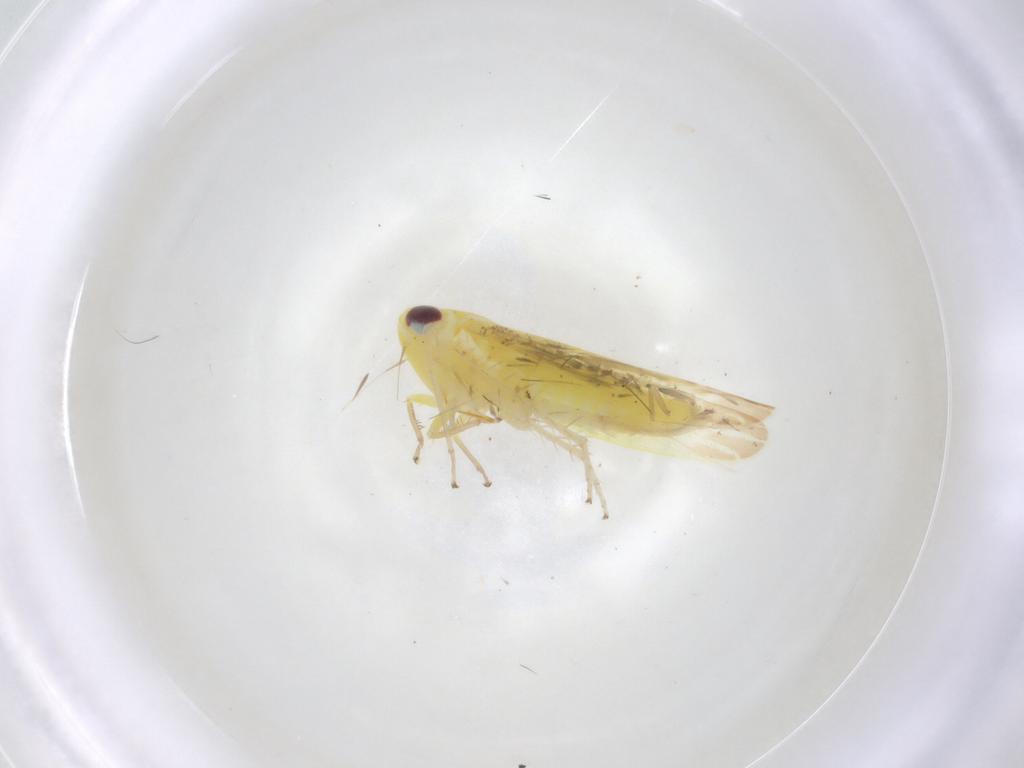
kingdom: Animalia
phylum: Arthropoda
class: Insecta
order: Hemiptera
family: Cicadellidae
